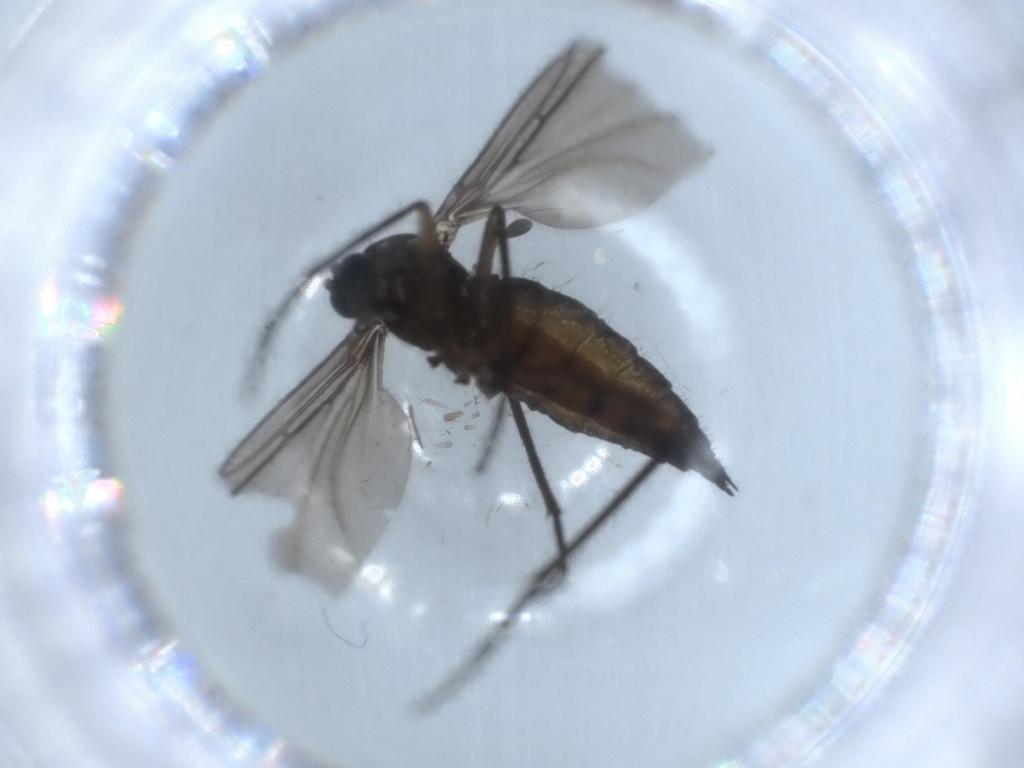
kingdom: Animalia
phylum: Arthropoda
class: Insecta
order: Diptera
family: Sciaridae
